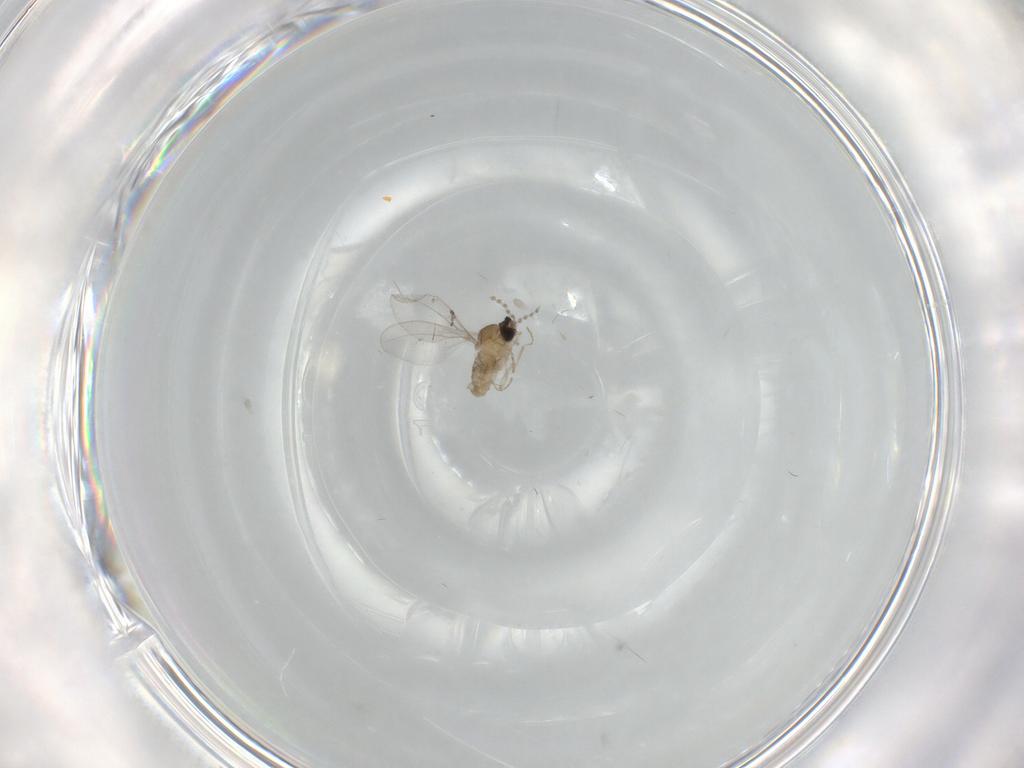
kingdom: Animalia
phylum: Arthropoda
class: Insecta
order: Diptera
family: Cecidomyiidae
